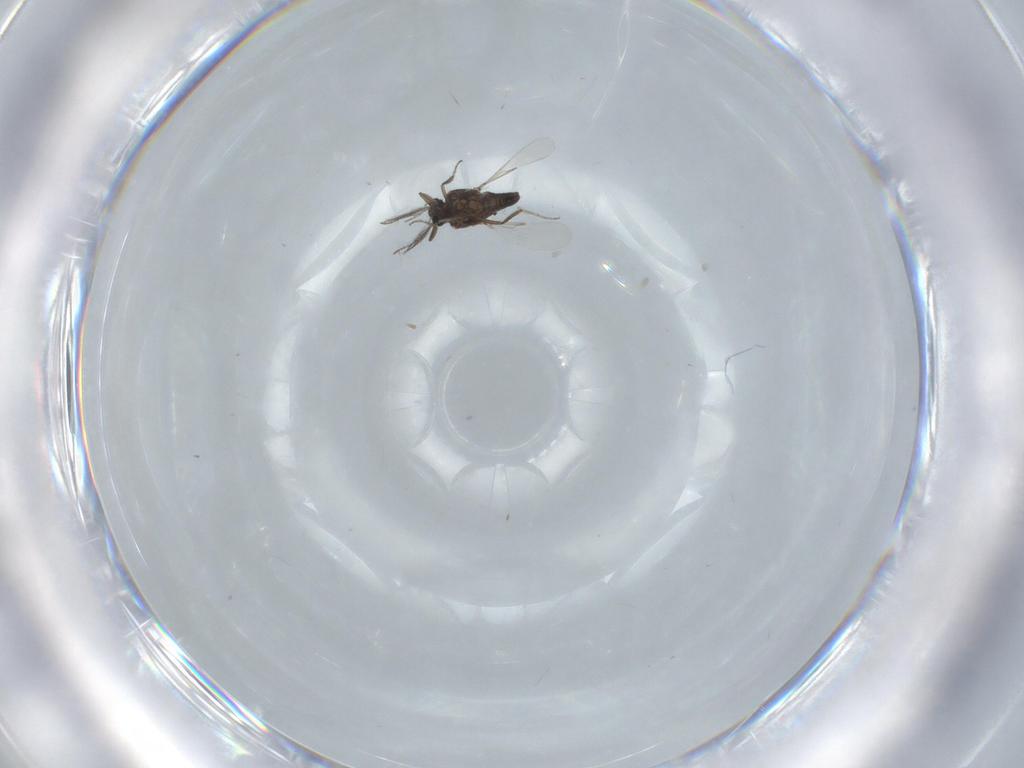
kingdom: Animalia
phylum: Arthropoda
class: Insecta
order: Diptera
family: Ceratopogonidae
